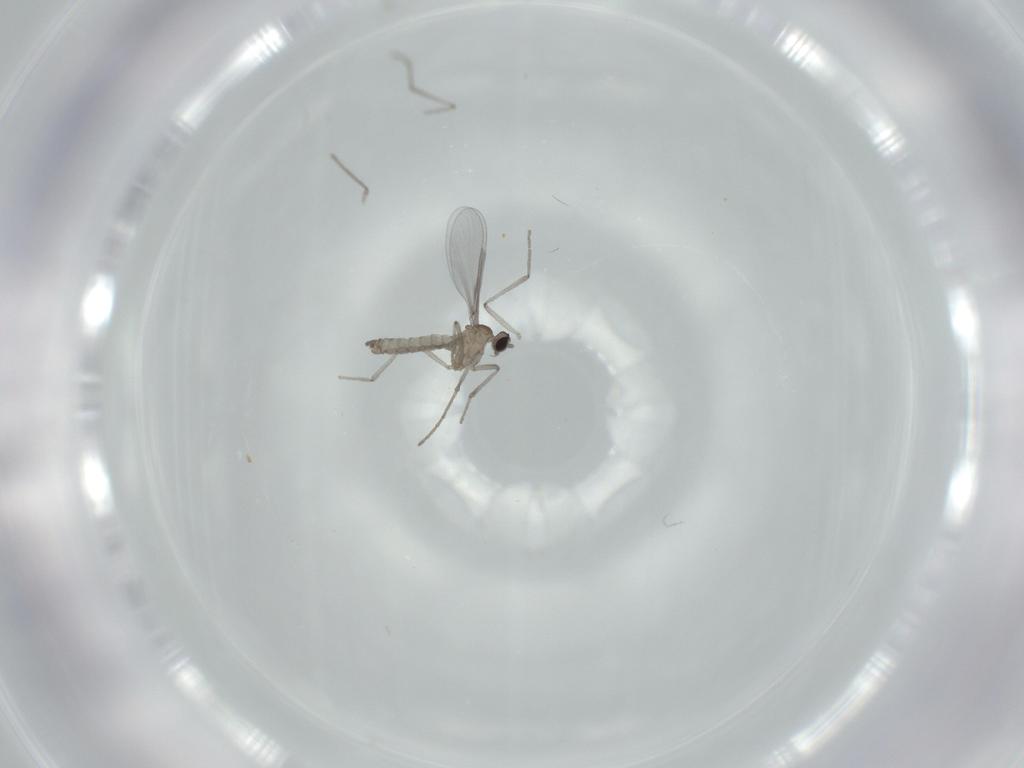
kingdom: Animalia
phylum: Arthropoda
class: Insecta
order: Diptera
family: Cecidomyiidae
